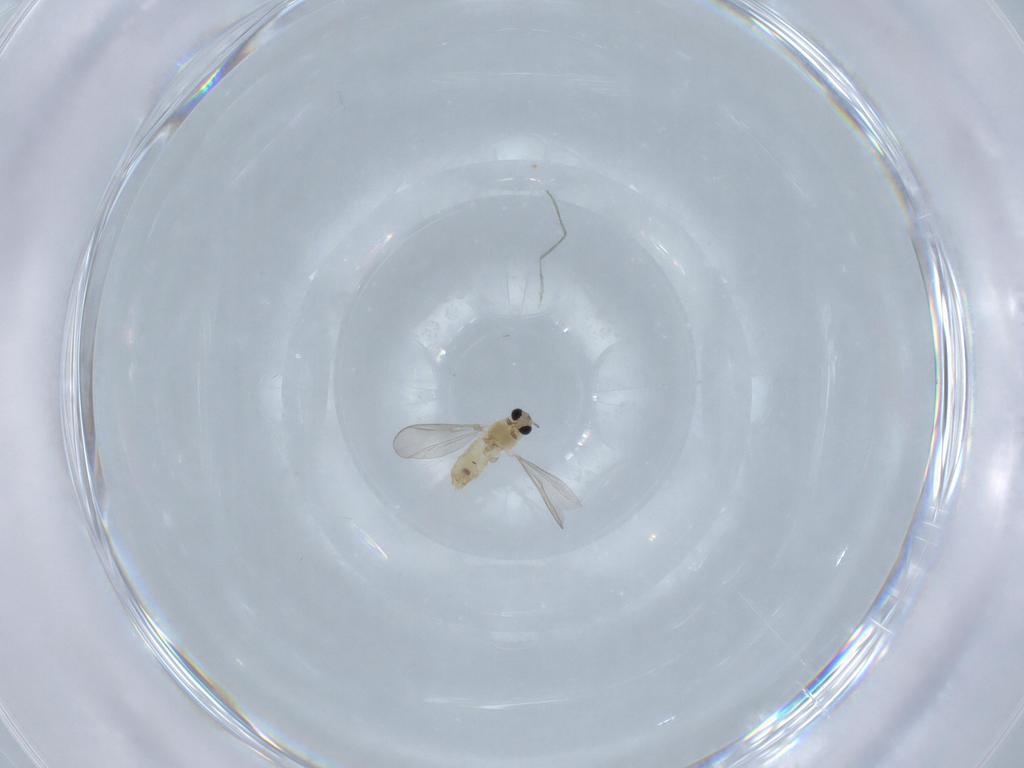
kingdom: Animalia
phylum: Arthropoda
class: Insecta
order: Diptera
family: Chironomidae
